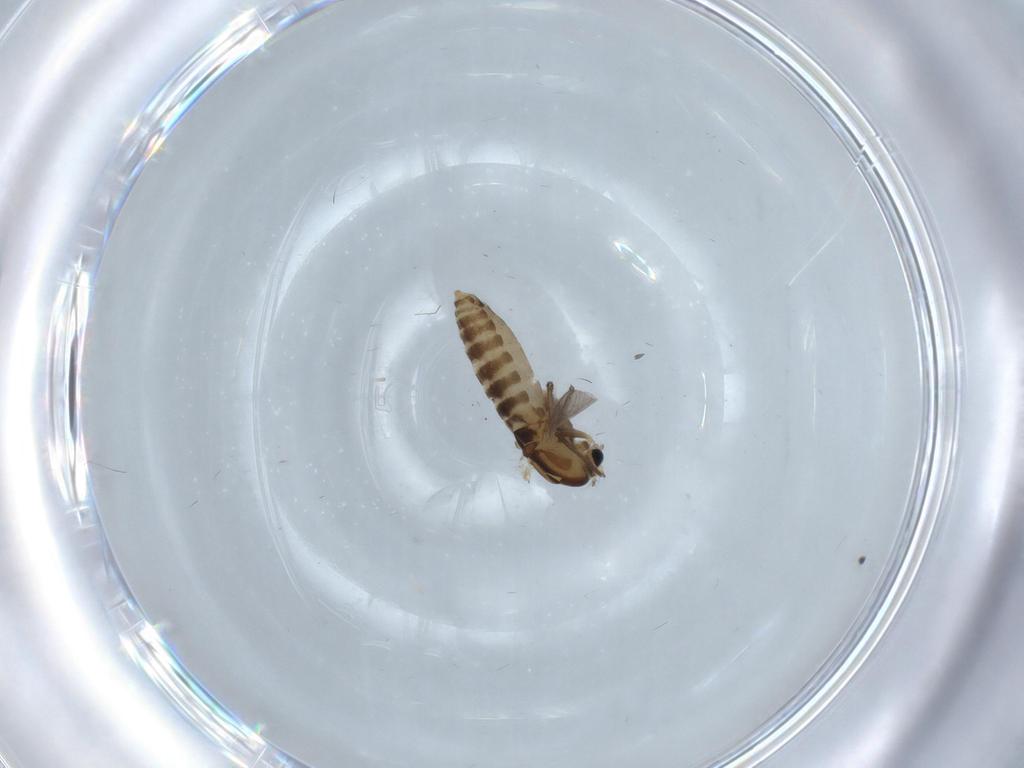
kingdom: Animalia
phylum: Arthropoda
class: Insecta
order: Diptera
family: Chironomidae
